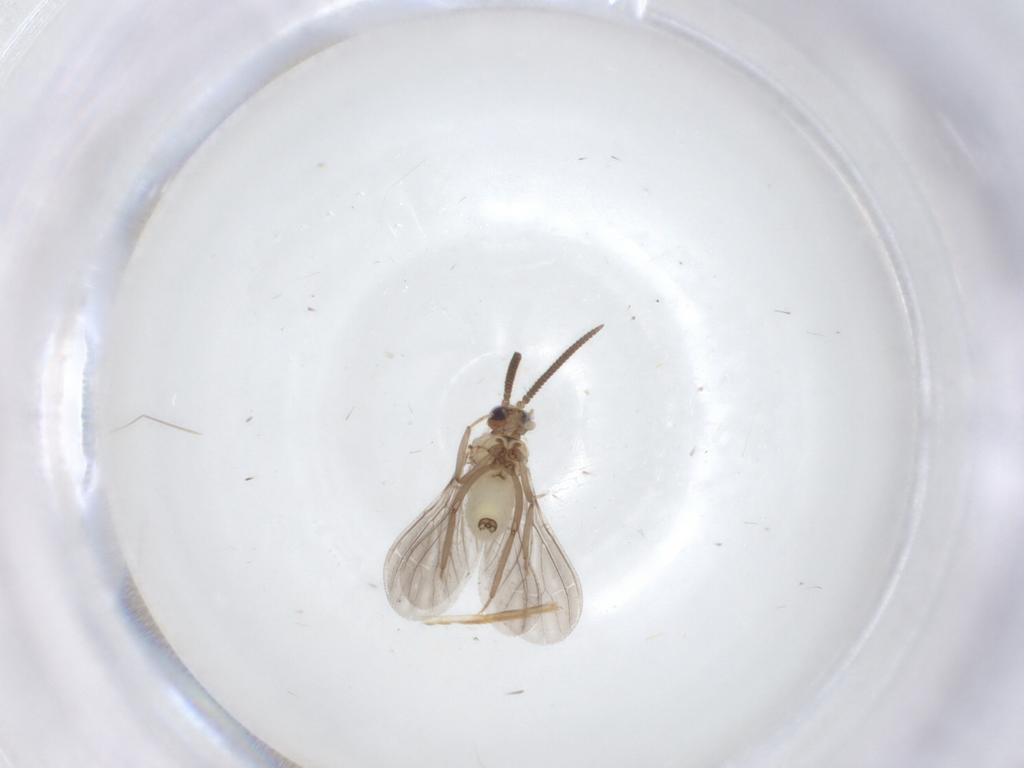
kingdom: Animalia
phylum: Arthropoda
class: Insecta
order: Neuroptera
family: Coniopterygidae
